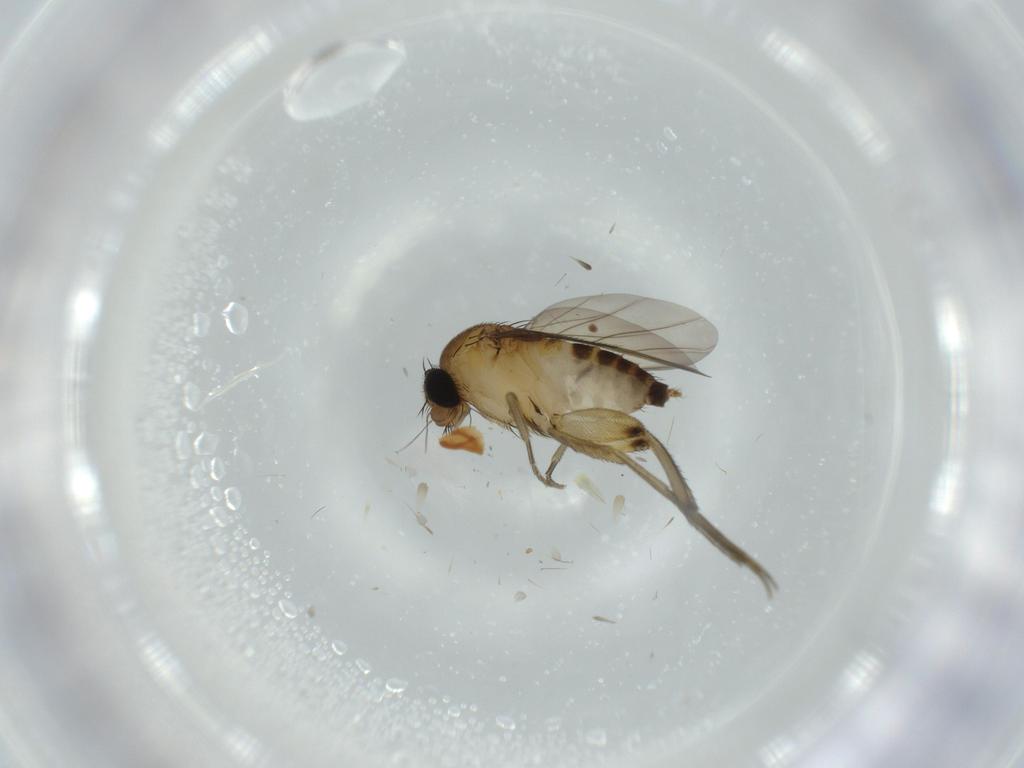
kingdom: Animalia
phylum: Arthropoda
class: Insecta
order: Diptera
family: Phoridae
